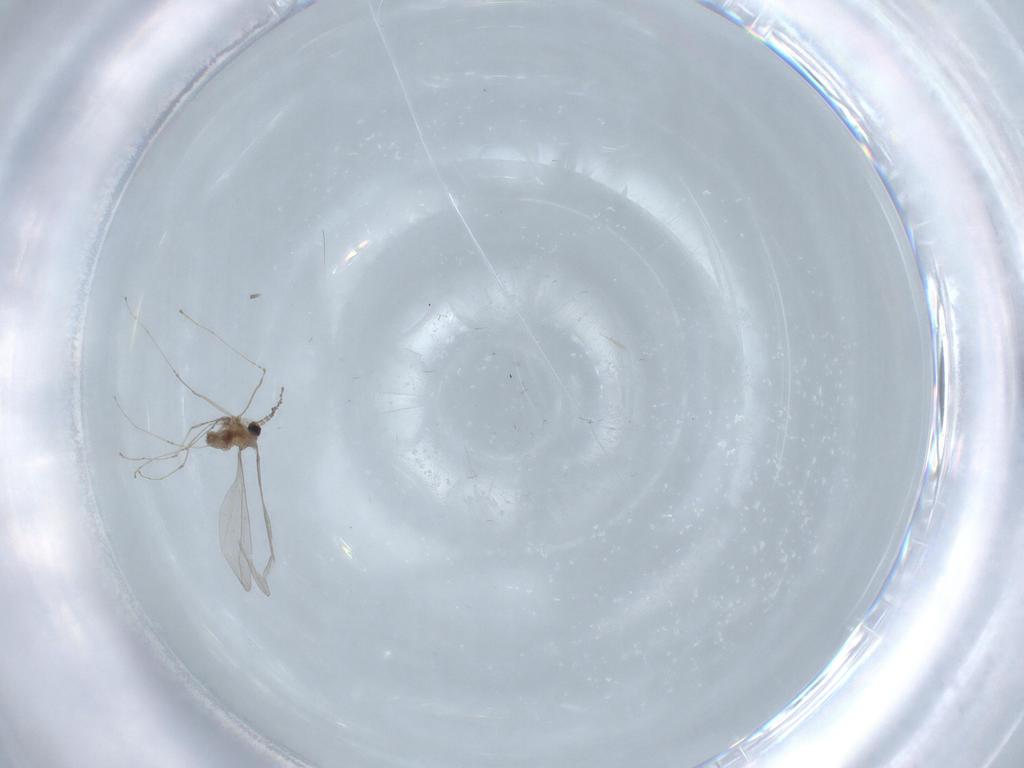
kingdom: Animalia
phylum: Arthropoda
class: Insecta
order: Diptera
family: Cecidomyiidae
